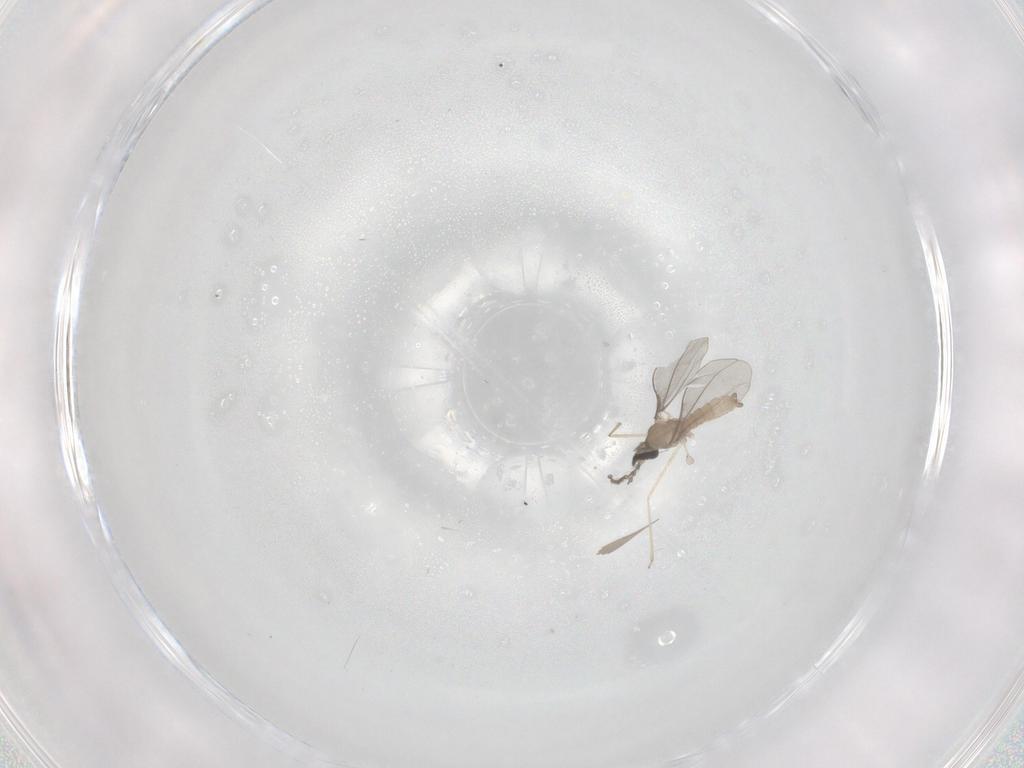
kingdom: Animalia
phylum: Arthropoda
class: Insecta
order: Diptera
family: Cecidomyiidae
